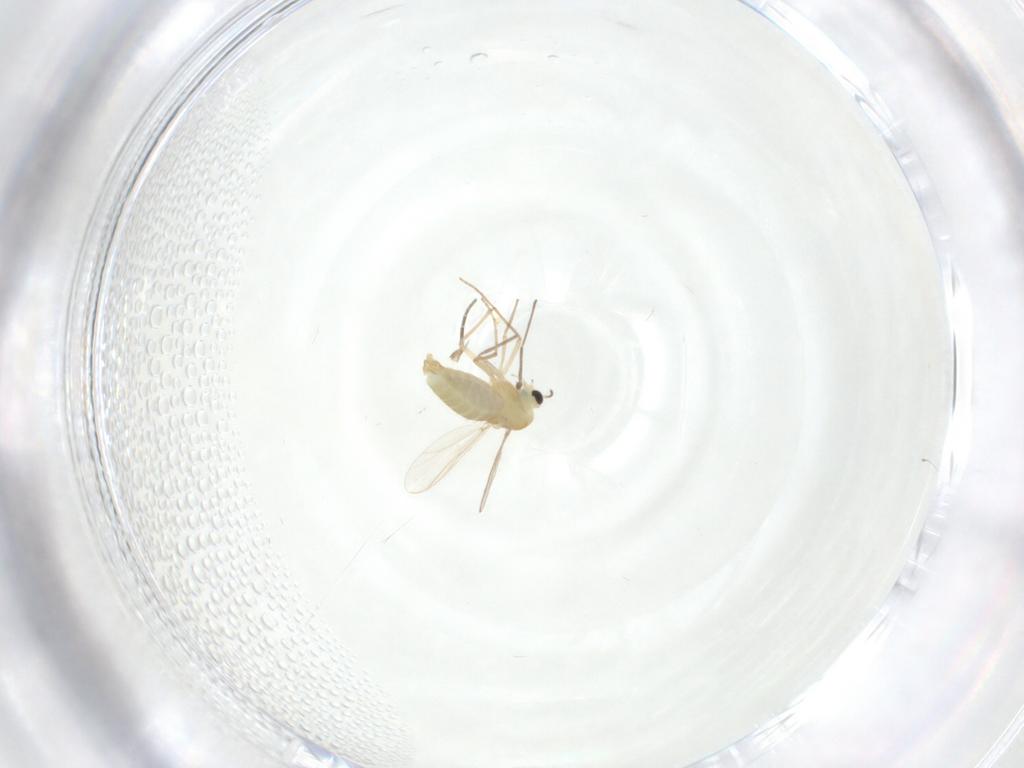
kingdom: Animalia
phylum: Arthropoda
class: Insecta
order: Diptera
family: Chironomidae
